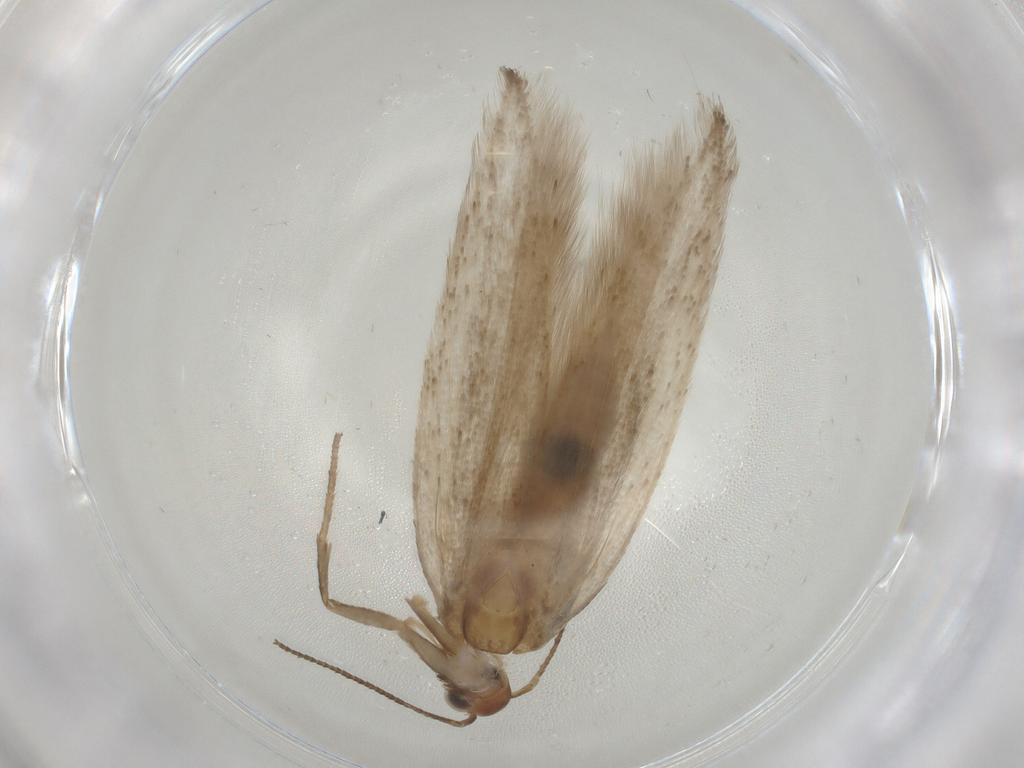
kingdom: Animalia
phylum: Arthropoda
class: Insecta
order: Lepidoptera
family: Gelechiidae
